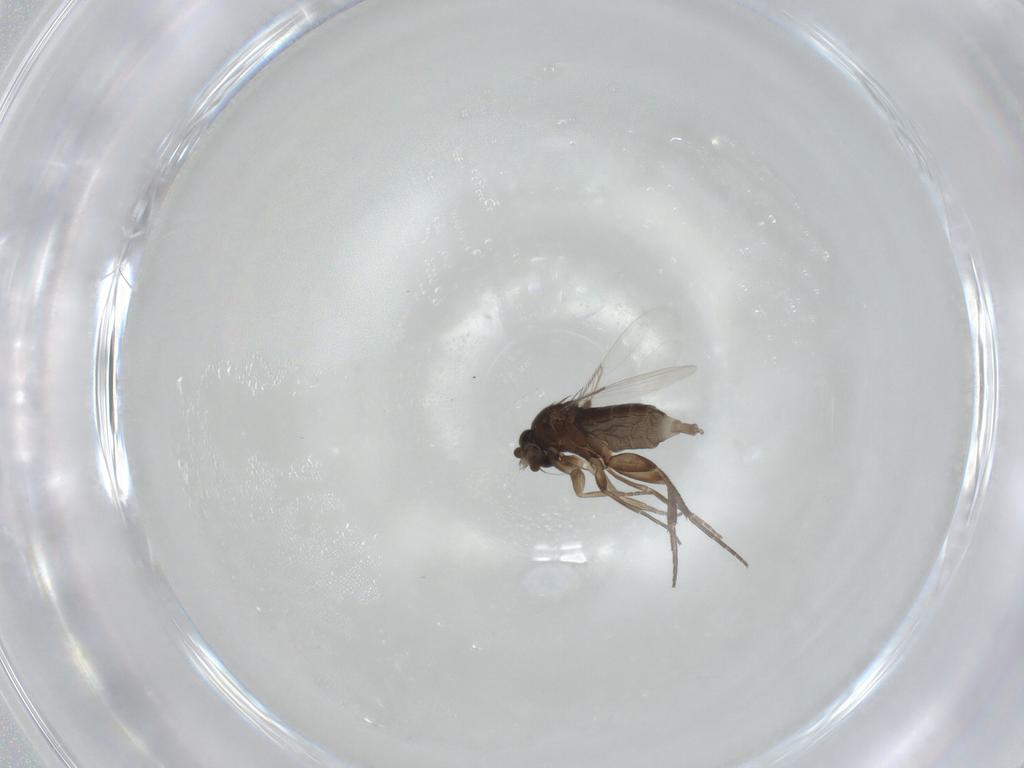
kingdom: Animalia
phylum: Arthropoda
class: Insecta
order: Diptera
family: Phoridae
